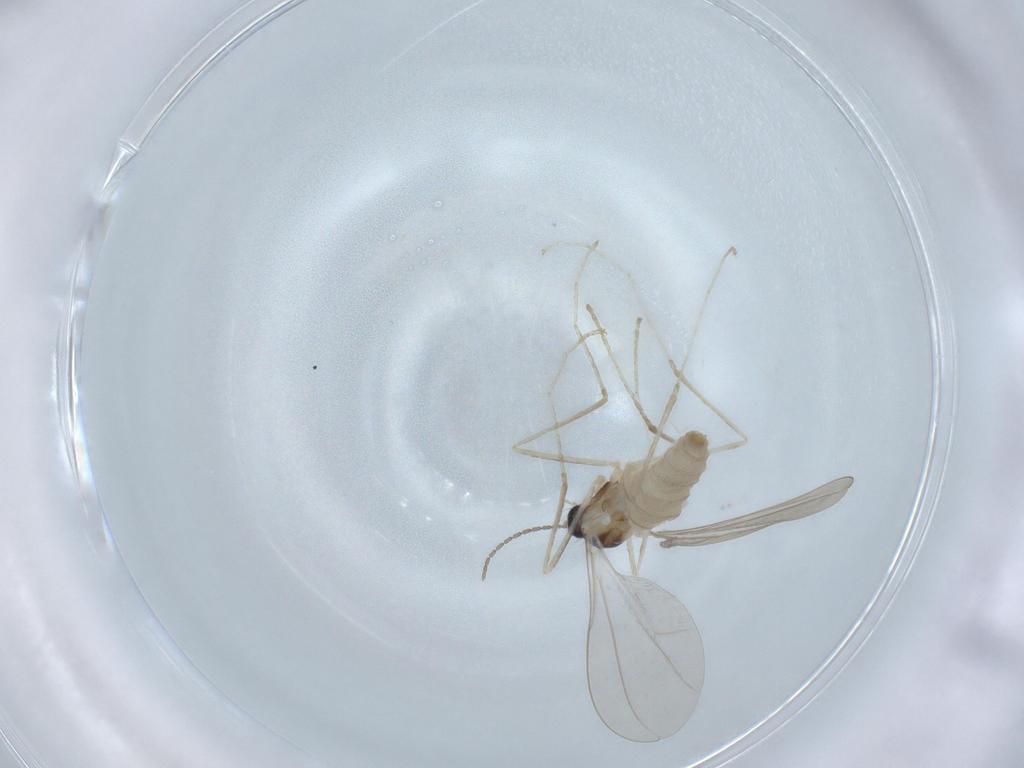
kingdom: Animalia
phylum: Arthropoda
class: Insecta
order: Diptera
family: Cecidomyiidae
